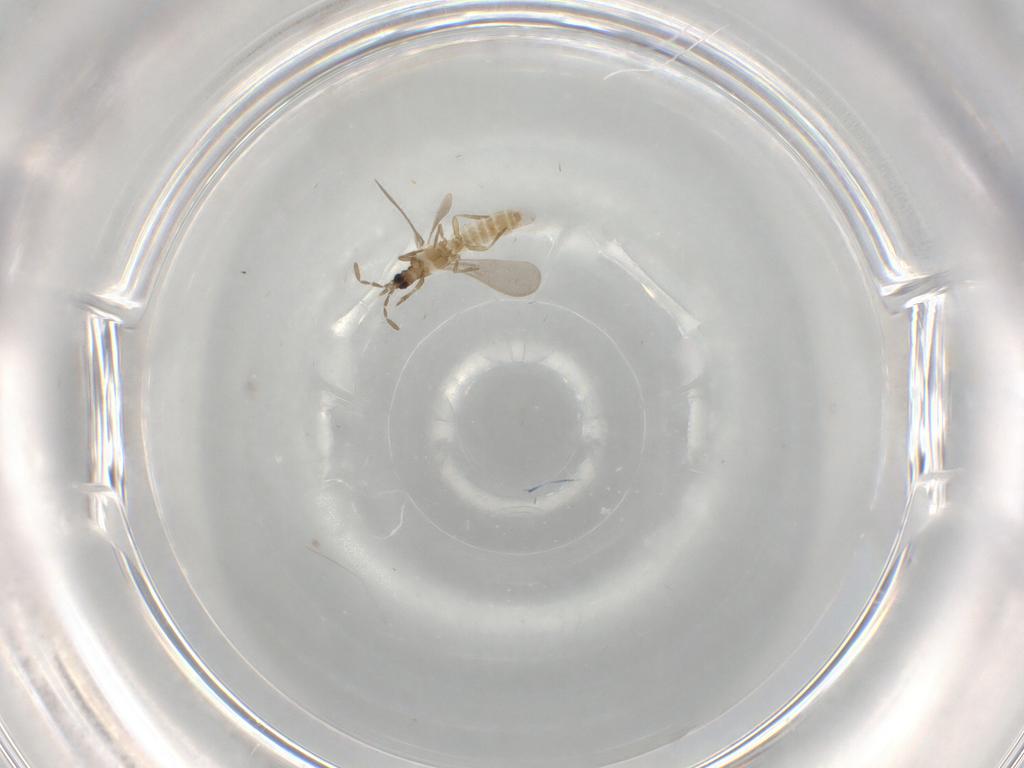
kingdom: Animalia
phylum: Arthropoda
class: Insecta
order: Hemiptera
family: Enicocephalidae
